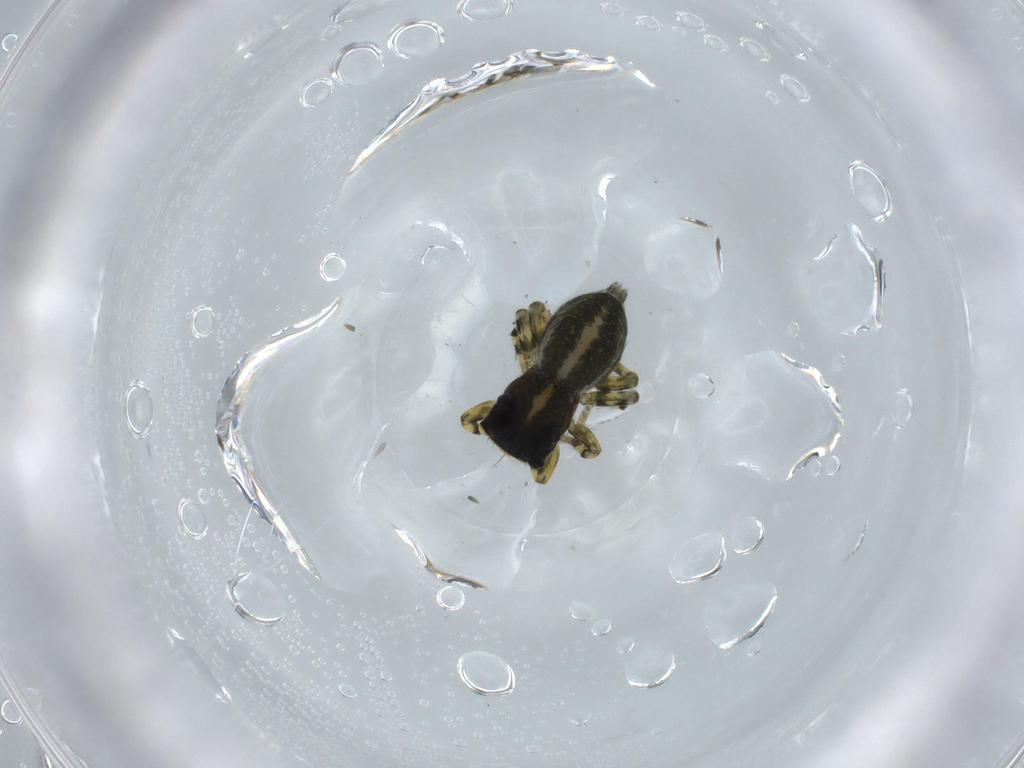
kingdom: Animalia
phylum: Arthropoda
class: Arachnida
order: Araneae
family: Salticidae
